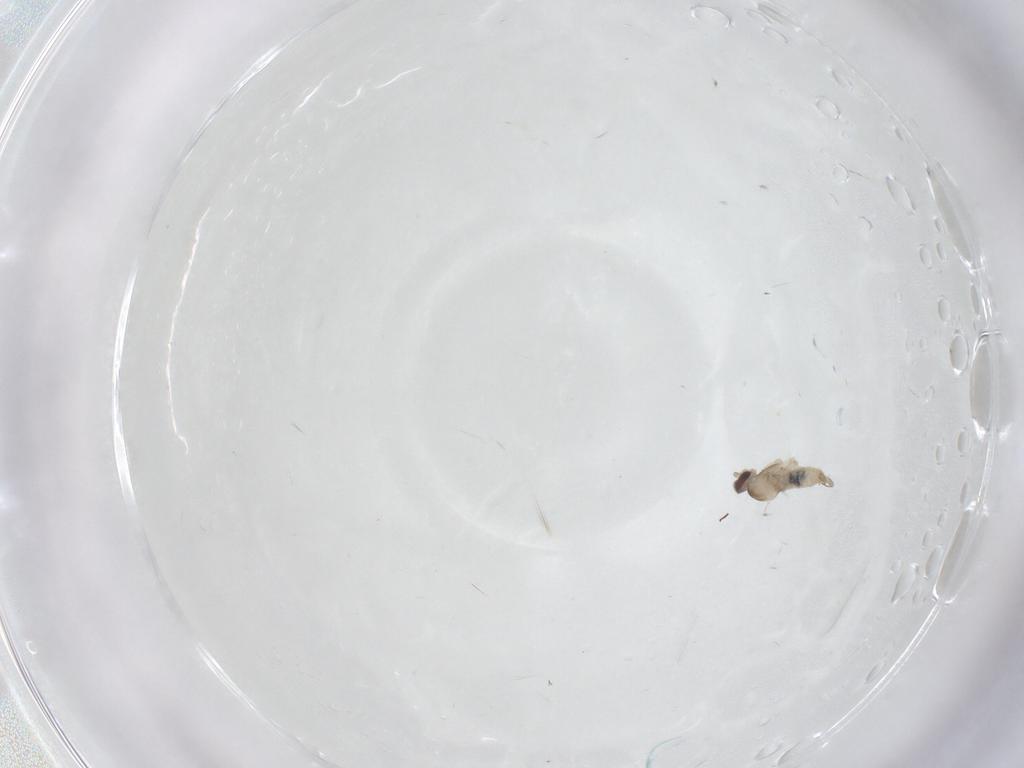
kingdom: Animalia
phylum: Arthropoda
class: Insecta
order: Diptera
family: Cecidomyiidae
